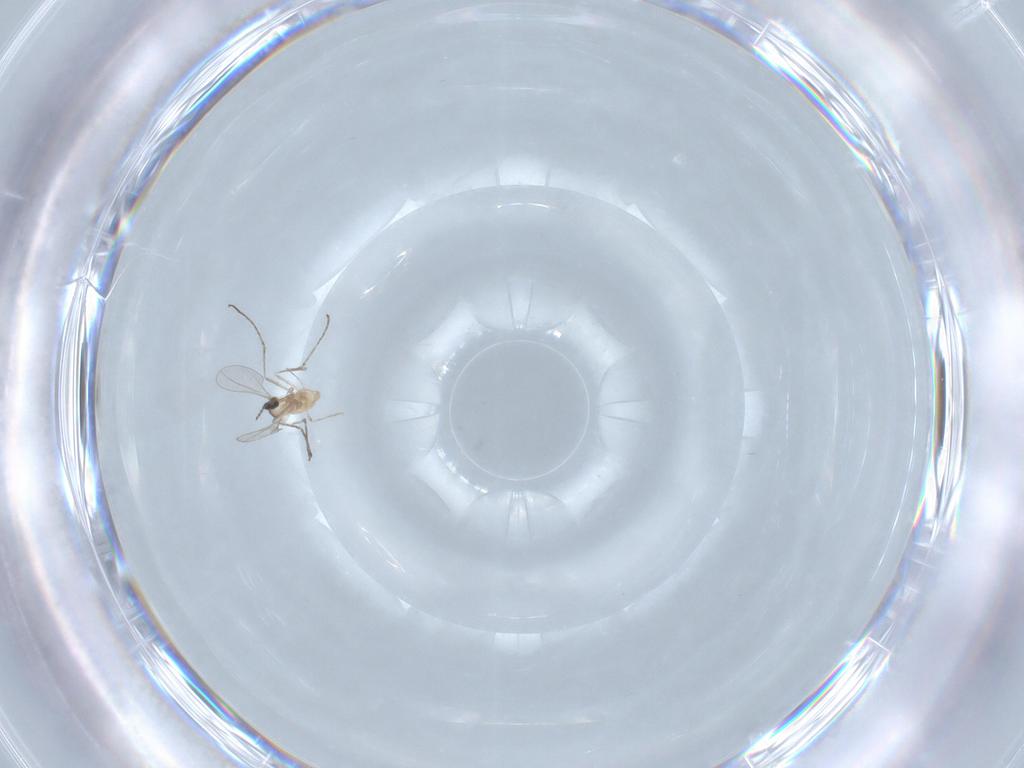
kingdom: Animalia
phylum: Arthropoda
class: Insecta
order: Diptera
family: Cecidomyiidae
